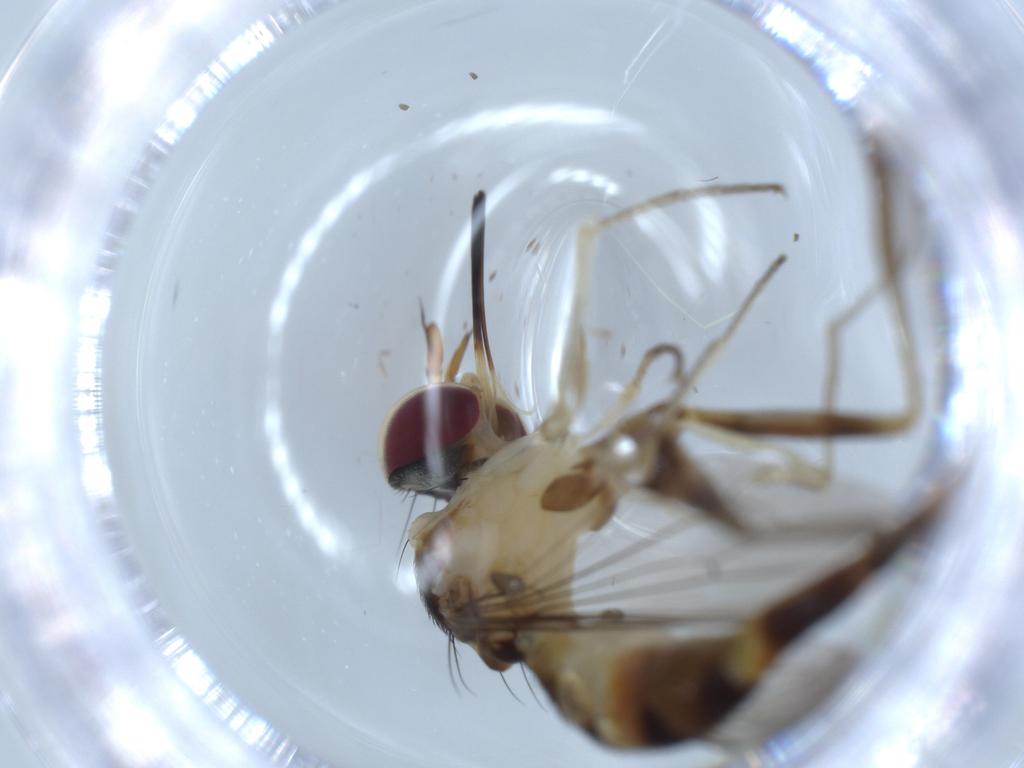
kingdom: Animalia
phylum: Arthropoda
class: Insecta
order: Diptera
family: Conopidae
